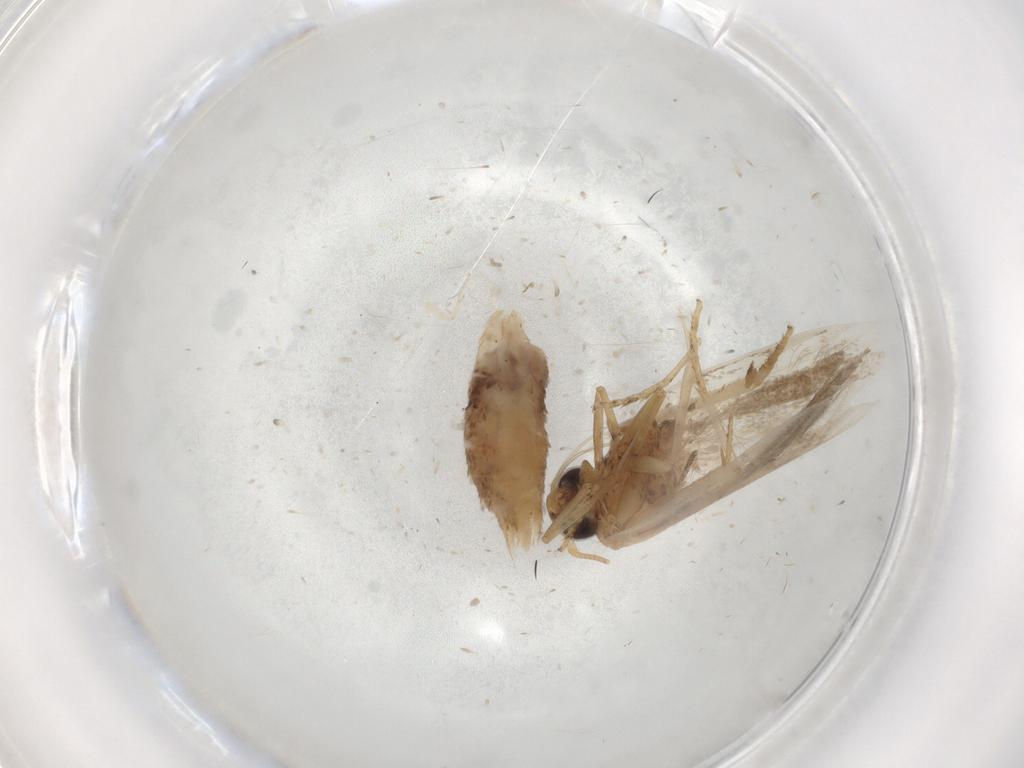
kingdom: Animalia
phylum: Arthropoda
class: Insecta
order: Lepidoptera
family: Gelechiidae
